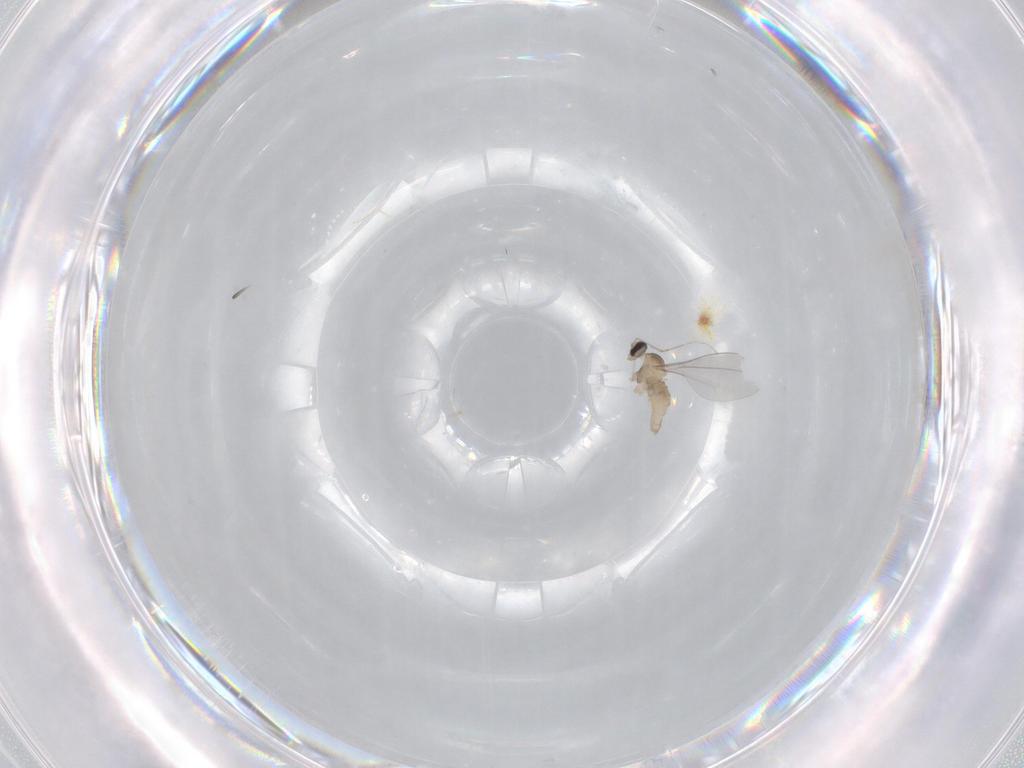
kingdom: Animalia
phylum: Arthropoda
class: Insecta
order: Diptera
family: Cecidomyiidae
